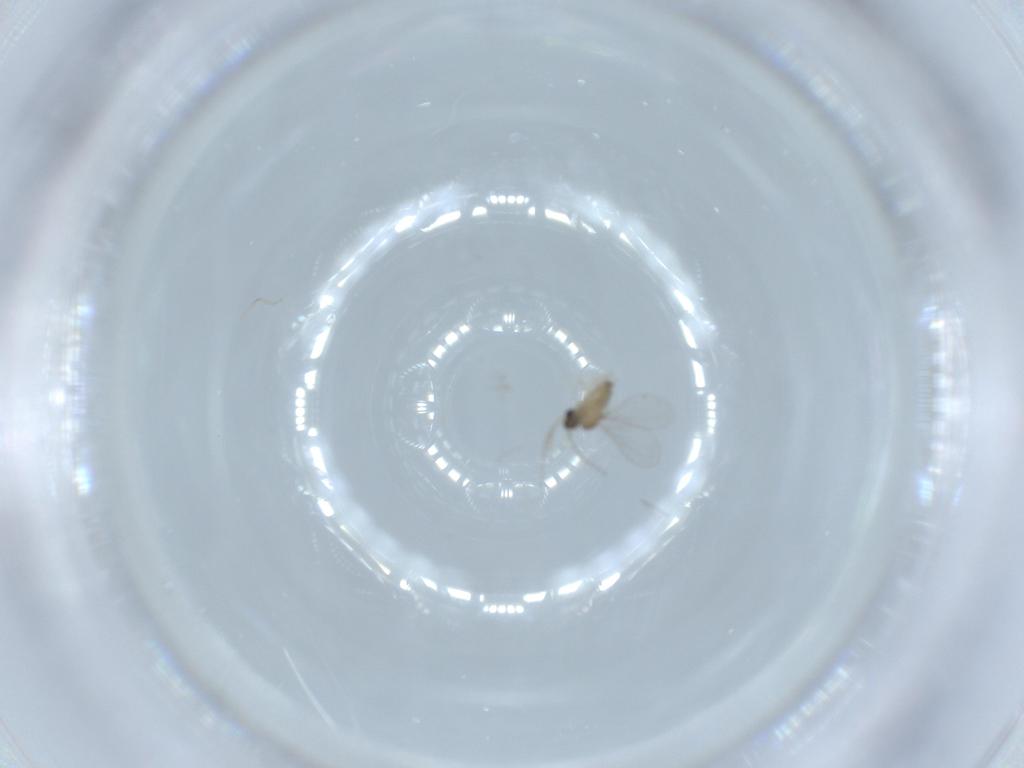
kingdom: Animalia
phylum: Arthropoda
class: Insecta
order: Diptera
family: Cecidomyiidae
